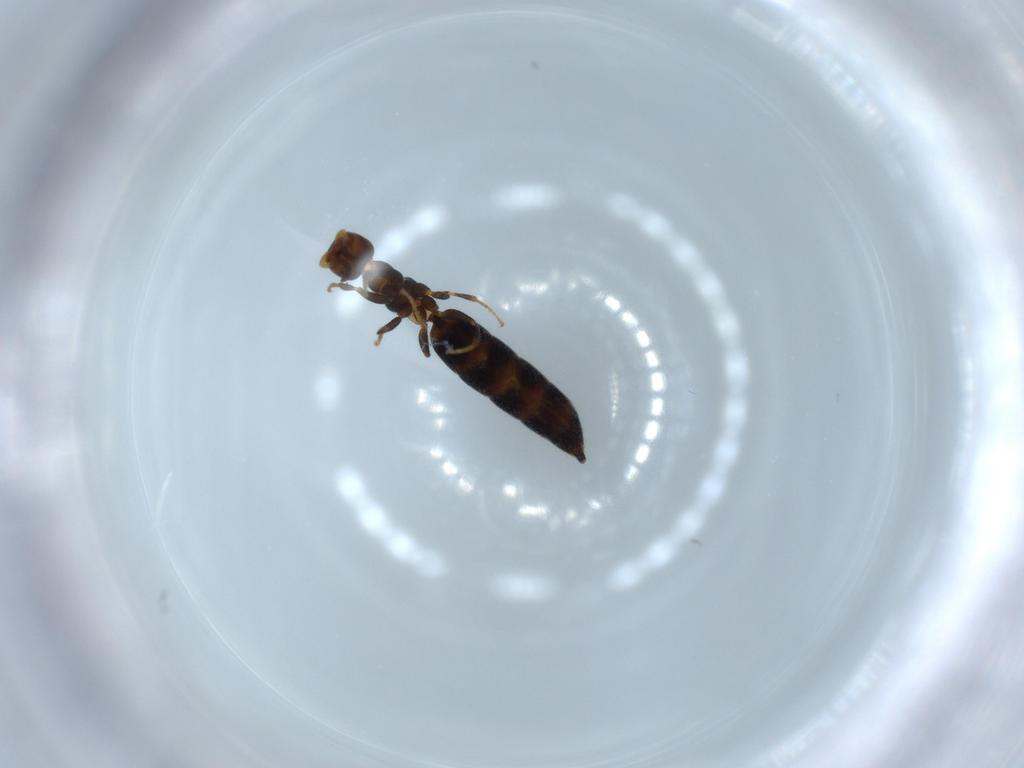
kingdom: Animalia
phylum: Arthropoda
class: Insecta
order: Hymenoptera
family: Bethylidae
